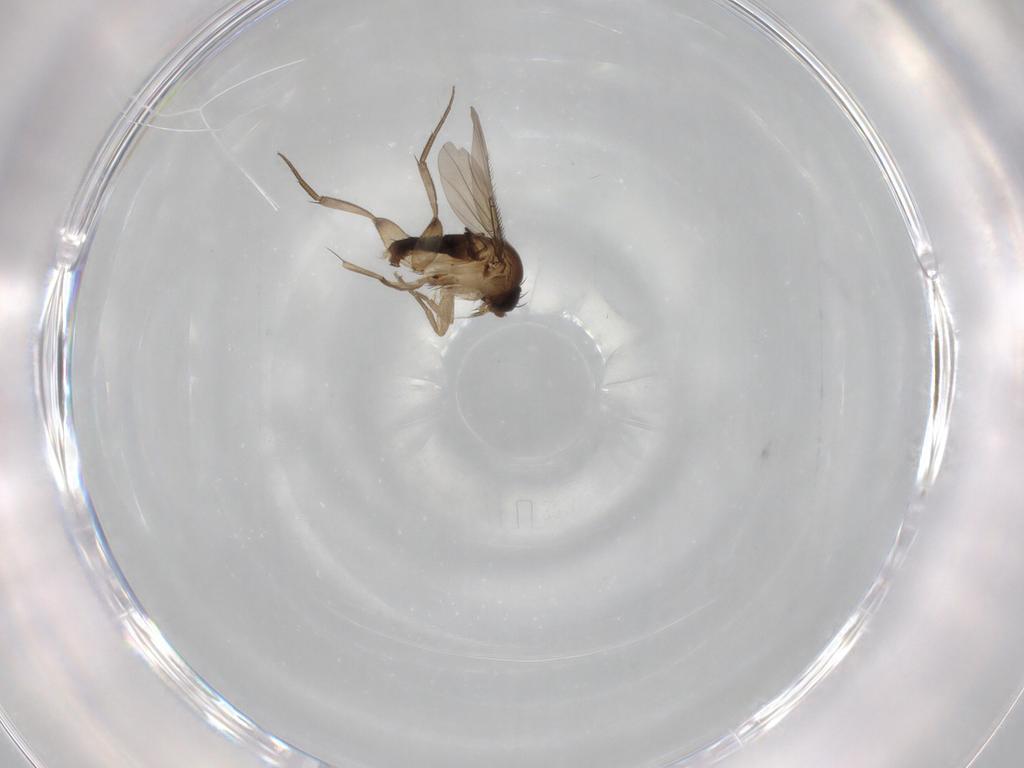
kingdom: Animalia
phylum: Arthropoda
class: Insecta
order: Diptera
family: Phoridae
